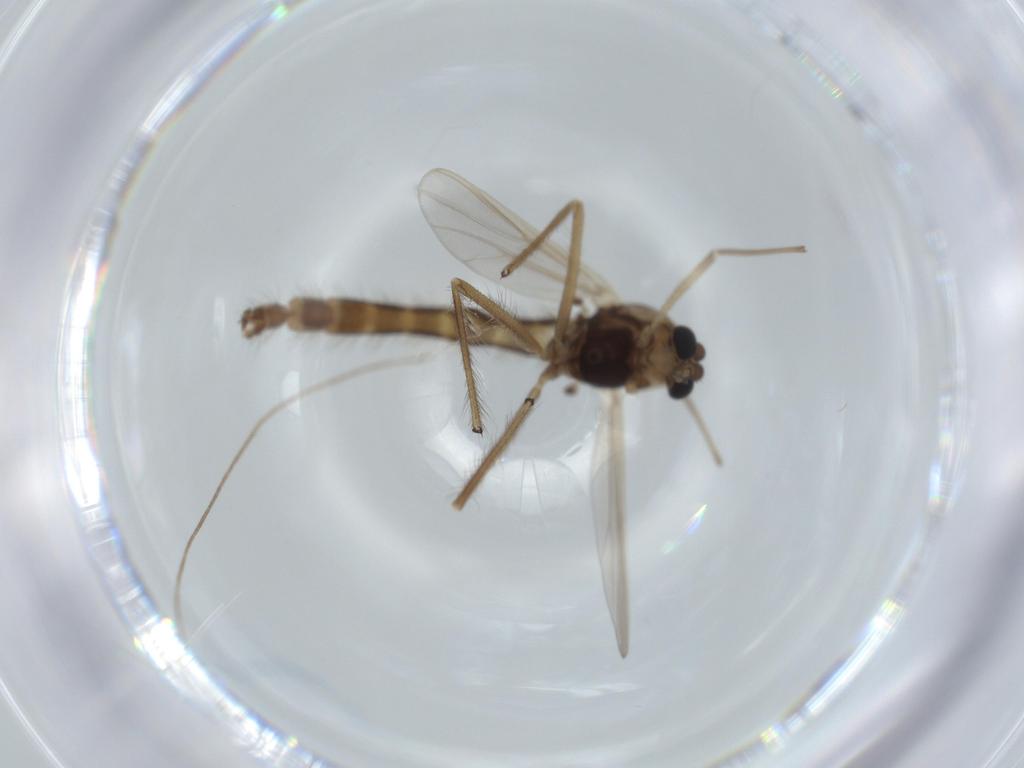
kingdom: Animalia
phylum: Arthropoda
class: Insecta
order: Diptera
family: Chironomidae
